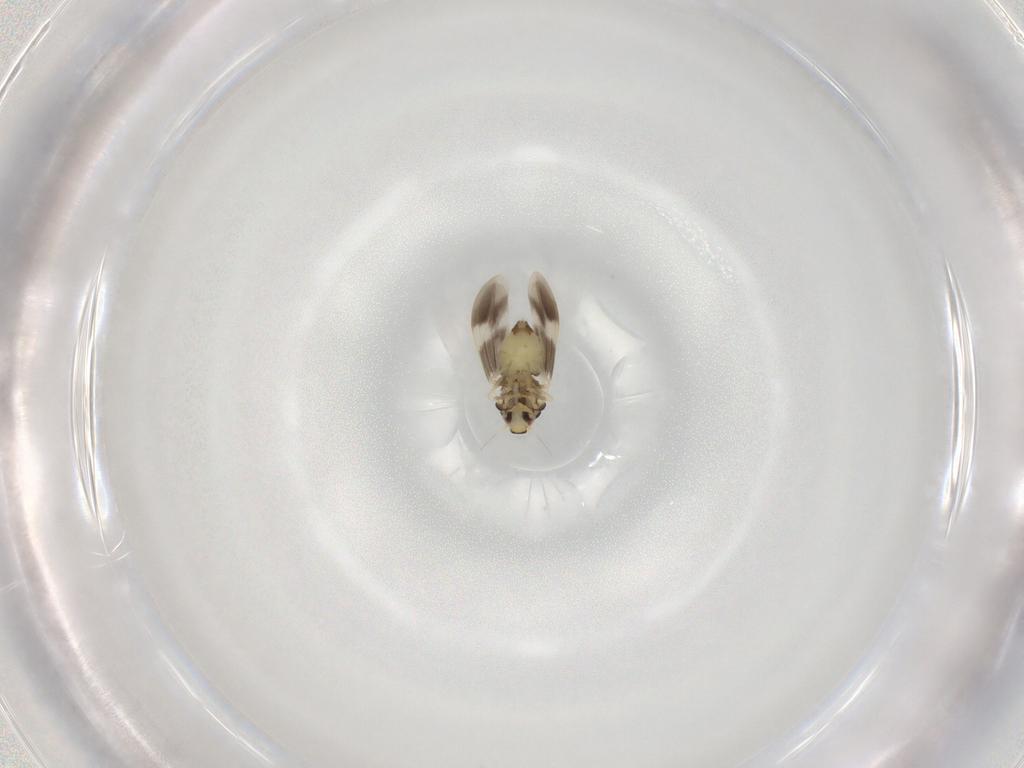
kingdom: Animalia
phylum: Arthropoda
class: Insecta
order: Hemiptera
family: Aleyrodidae
